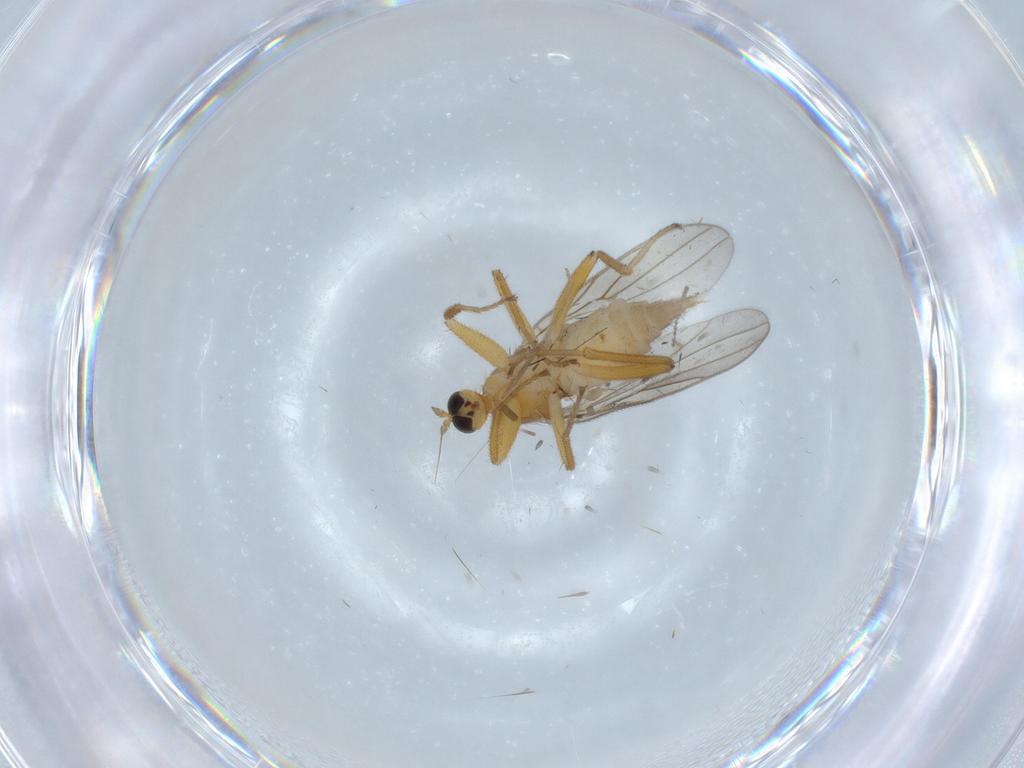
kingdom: Animalia
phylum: Arthropoda
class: Insecta
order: Diptera
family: Hybotidae
